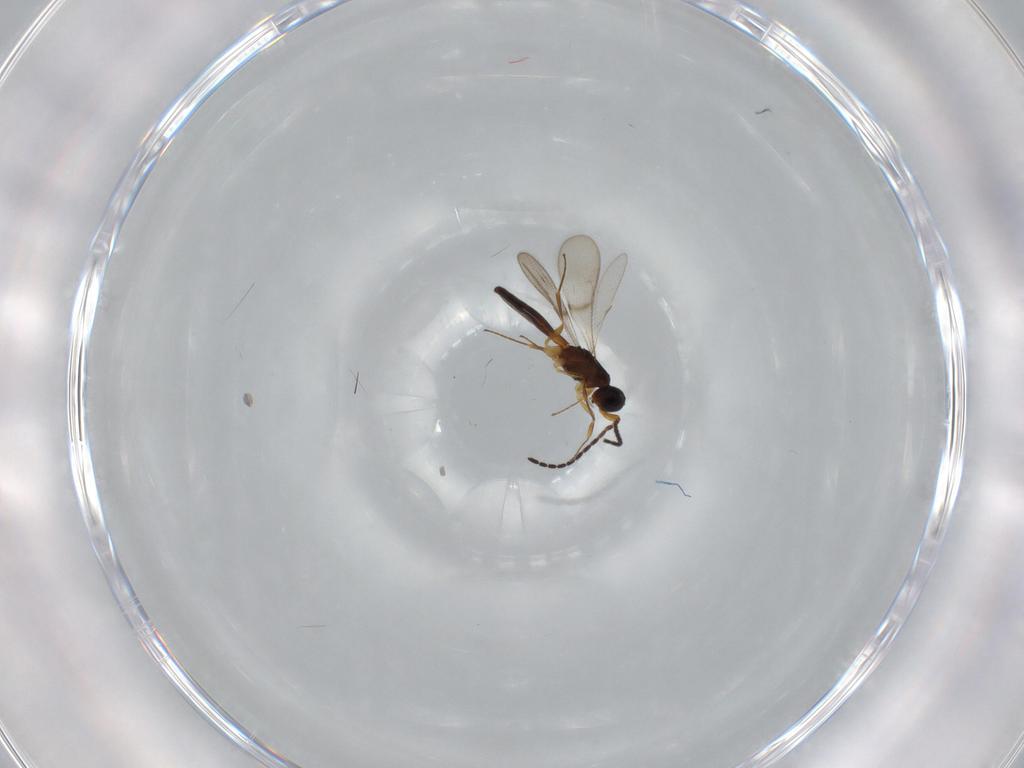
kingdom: Animalia
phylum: Arthropoda
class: Insecta
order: Hymenoptera
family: Scelionidae
